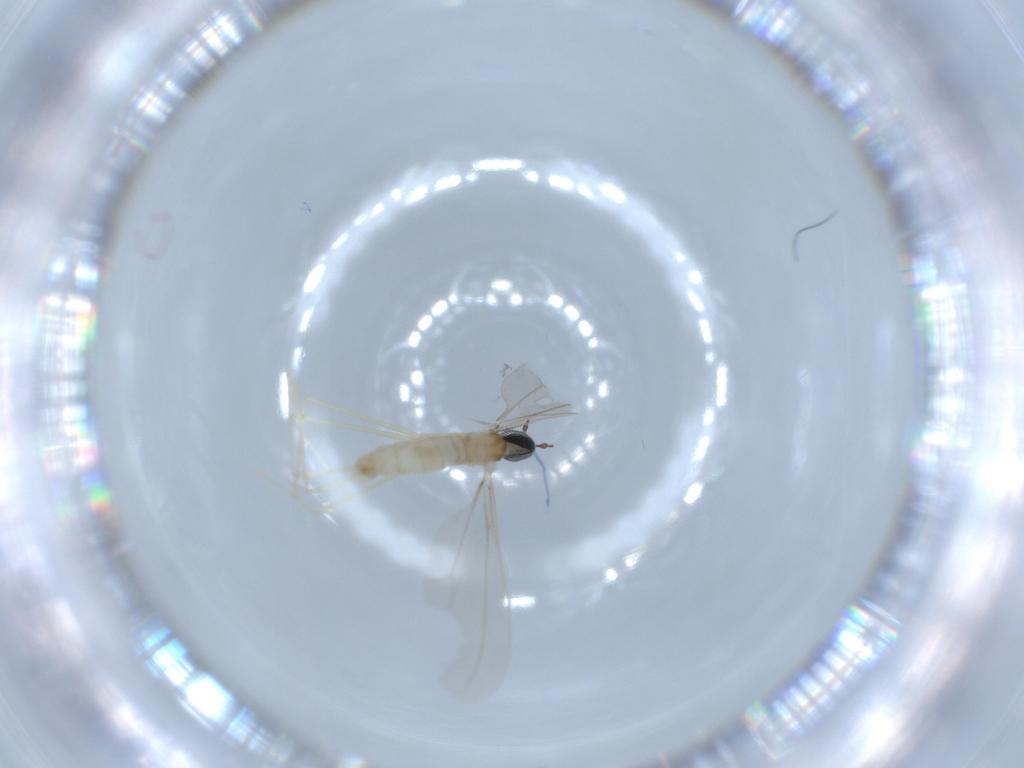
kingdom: Animalia
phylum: Arthropoda
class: Insecta
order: Diptera
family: Cecidomyiidae
